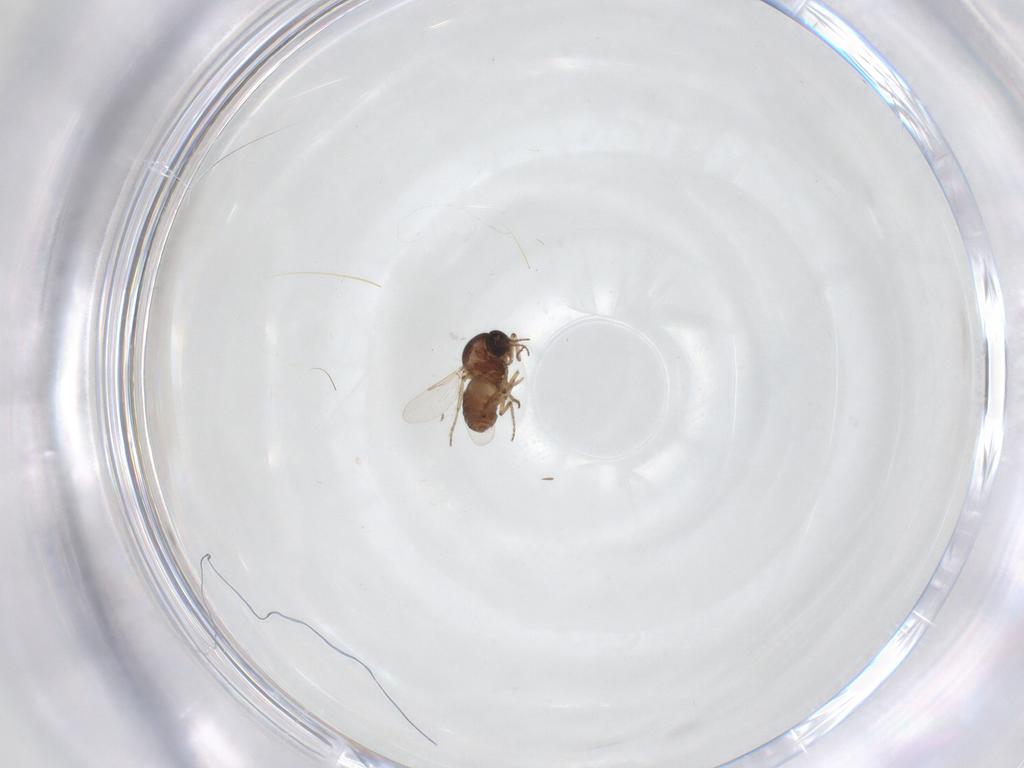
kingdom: Animalia
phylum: Arthropoda
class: Insecta
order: Diptera
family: Ceratopogonidae
